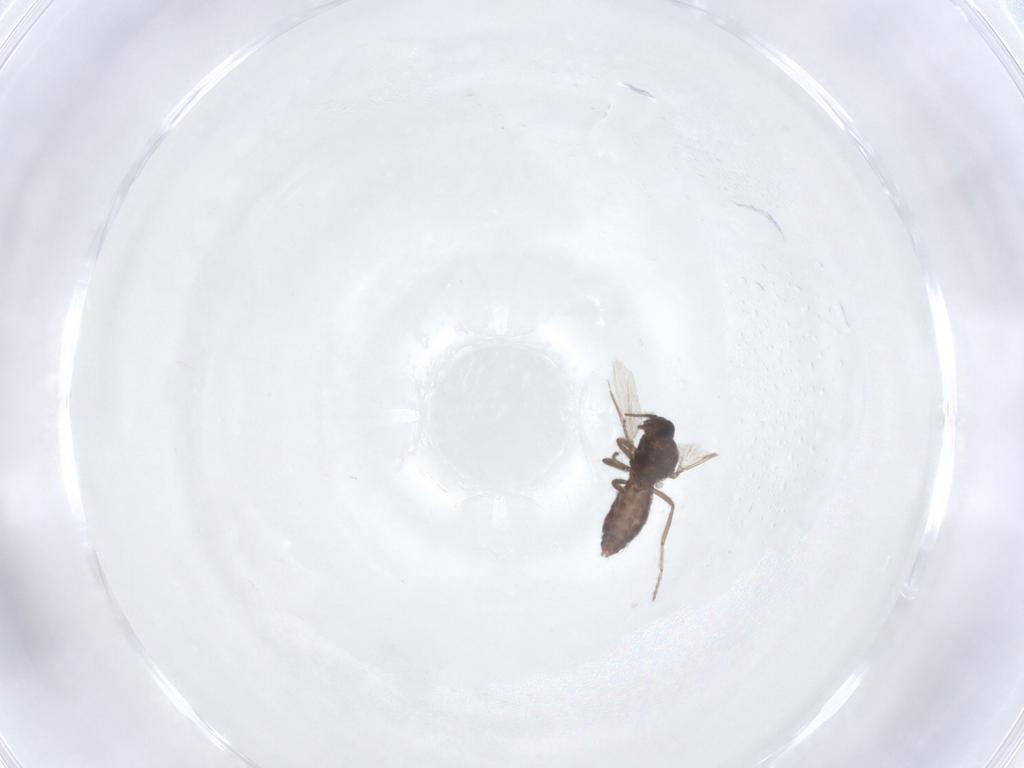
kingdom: Animalia
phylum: Arthropoda
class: Insecta
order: Diptera
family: Ceratopogonidae
